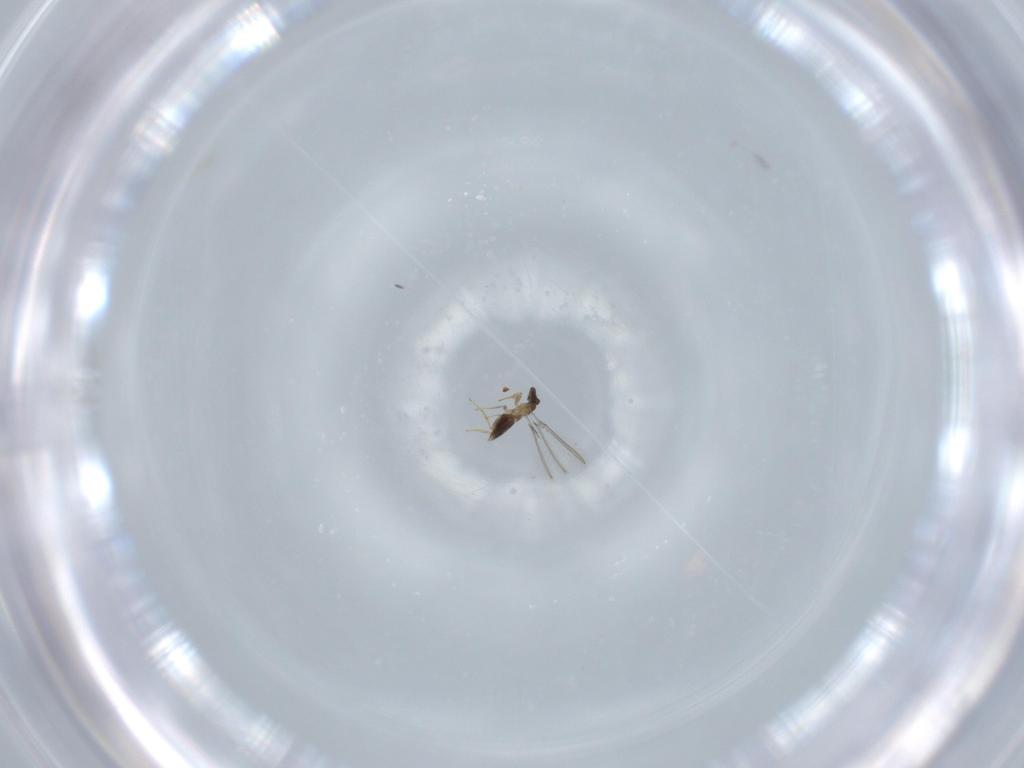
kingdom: Animalia
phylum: Arthropoda
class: Insecta
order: Hymenoptera
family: Mymaridae
